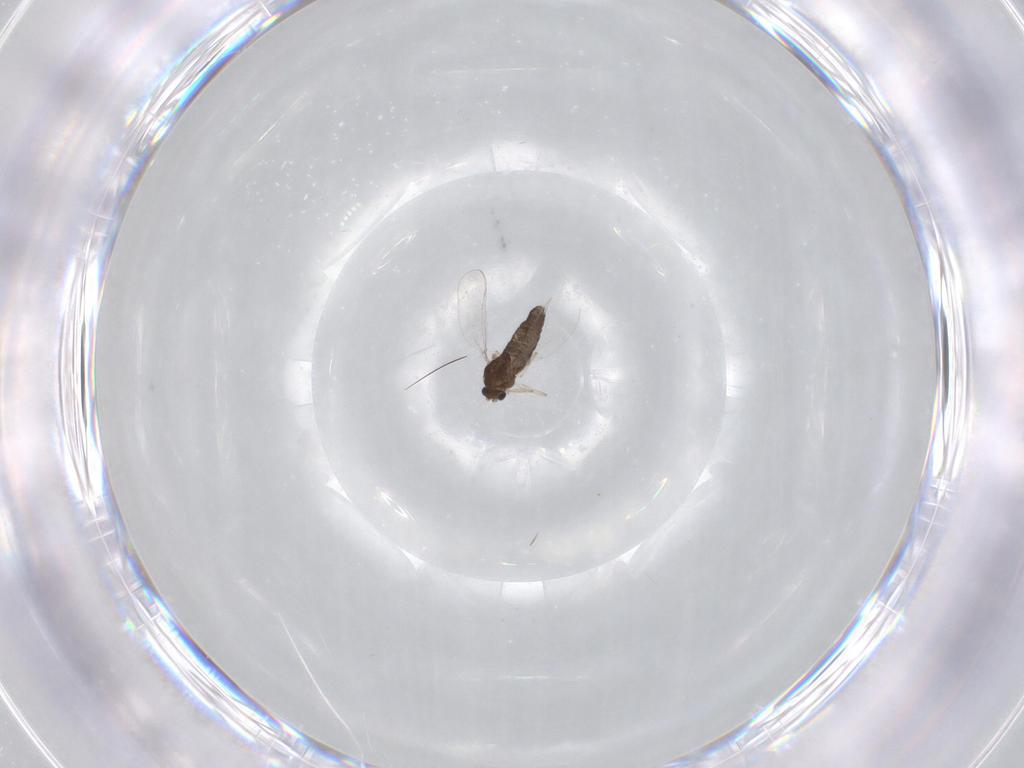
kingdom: Animalia
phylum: Arthropoda
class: Insecta
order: Diptera
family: Chironomidae
